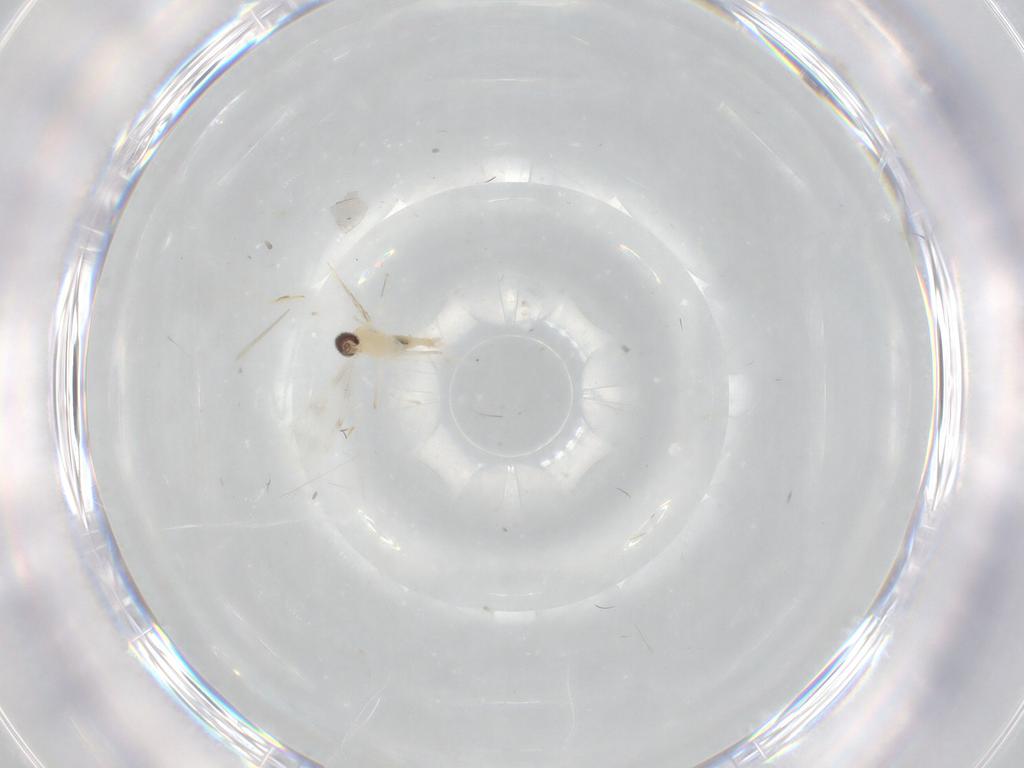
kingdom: Animalia
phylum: Arthropoda
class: Insecta
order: Diptera
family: Cecidomyiidae
